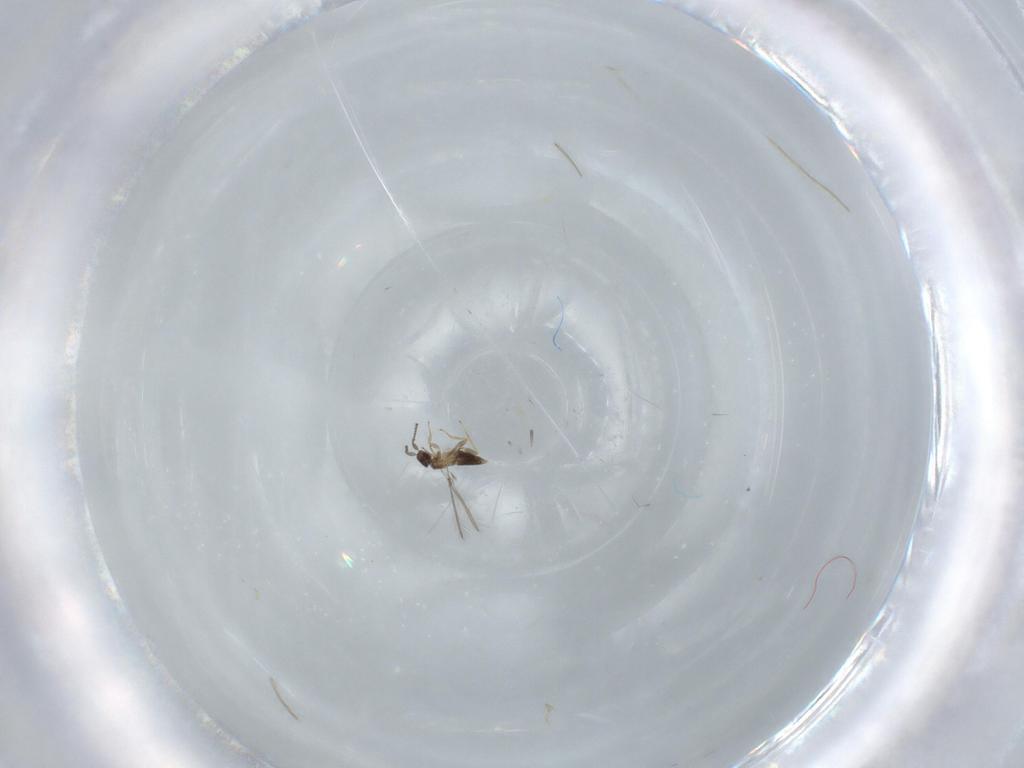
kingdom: Animalia
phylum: Arthropoda
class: Insecta
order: Hymenoptera
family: Mymaridae
